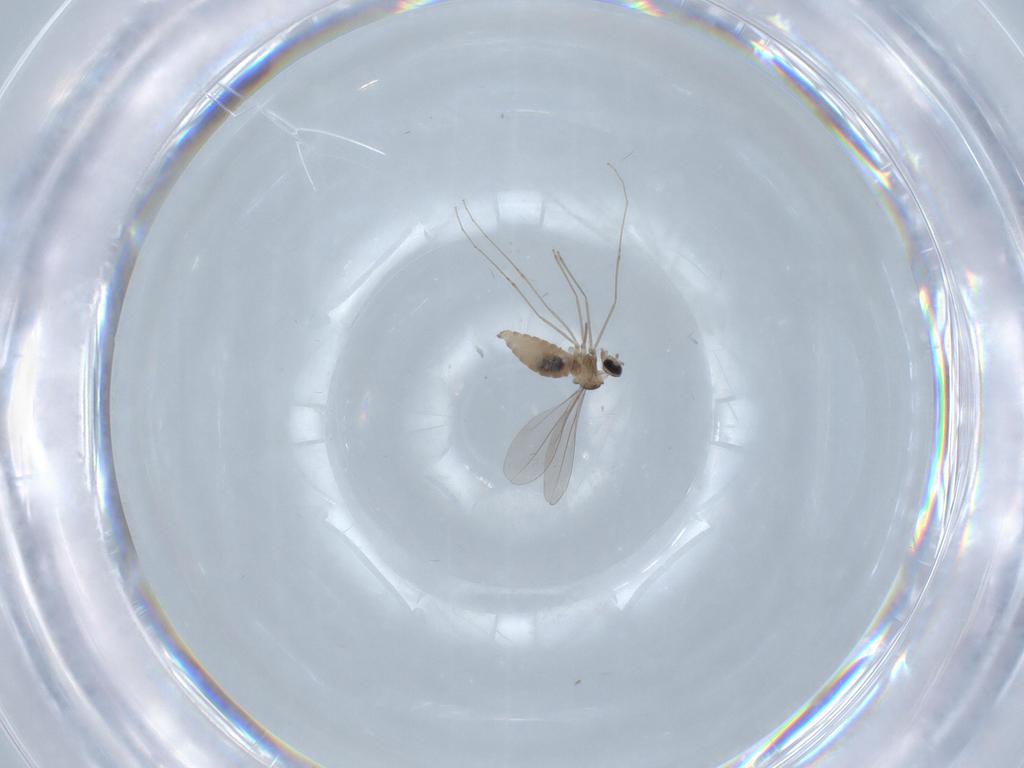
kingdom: Animalia
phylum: Arthropoda
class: Insecta
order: Diptera
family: Cecidomyiidae
